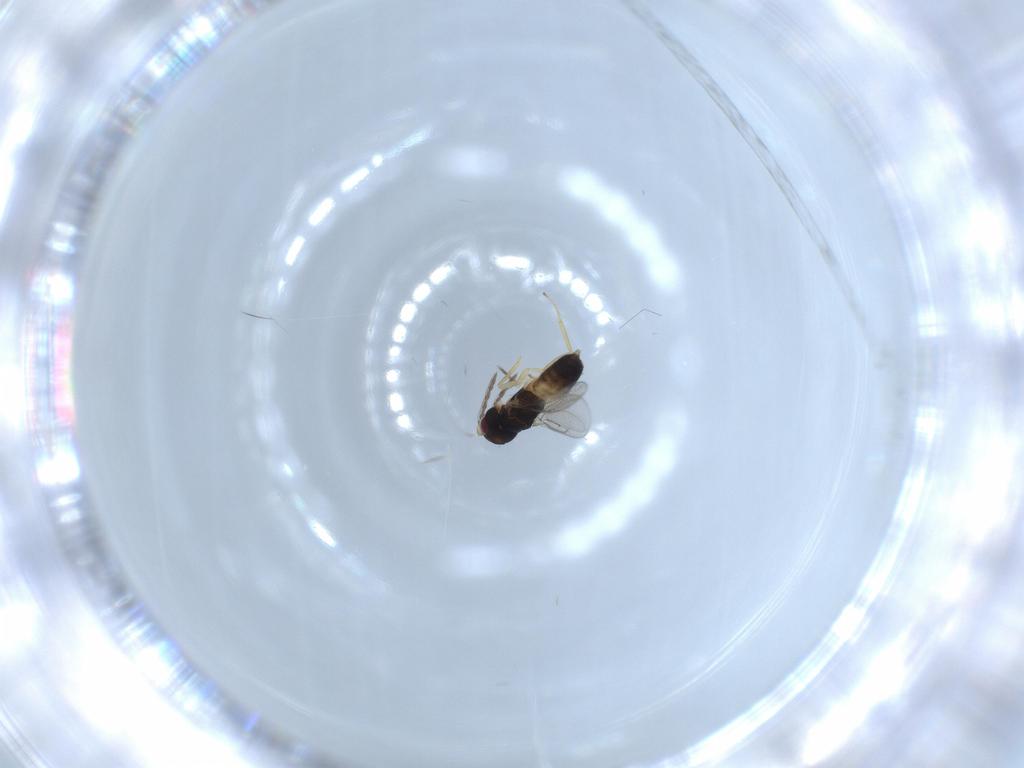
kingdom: Animalia
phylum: Arthropoda
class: Insecta
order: Hymenoptera
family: Eulophidae
